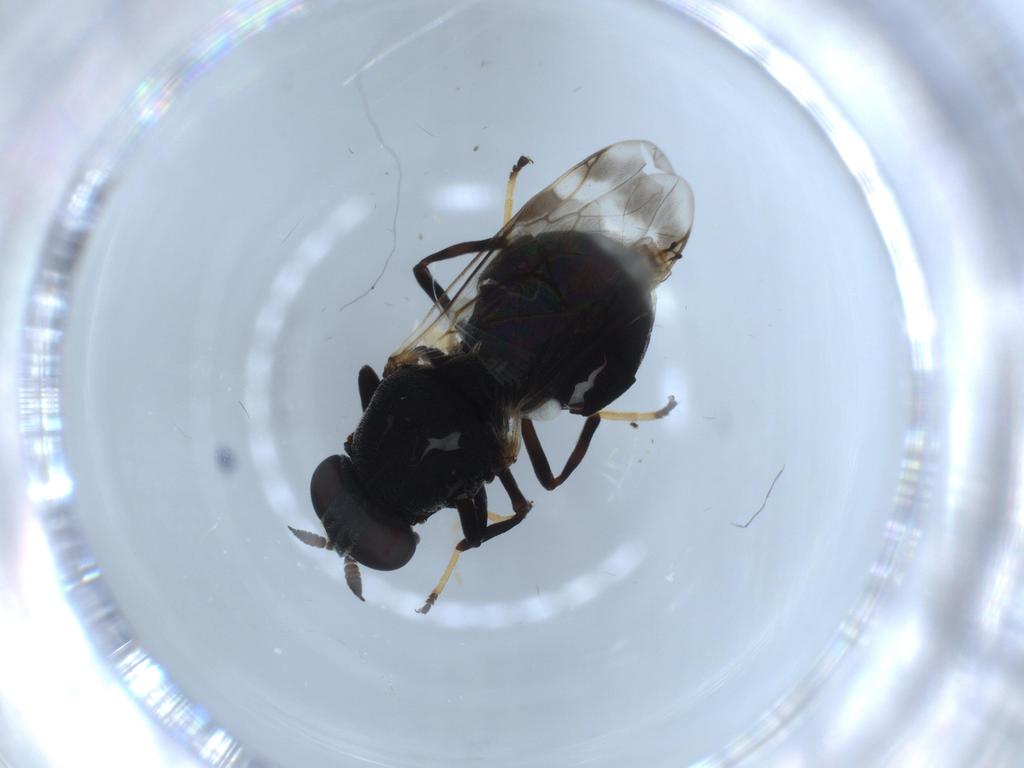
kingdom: Animalia
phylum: Arthropoda
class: Insecta
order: Diptera
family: Stratiomyidae
